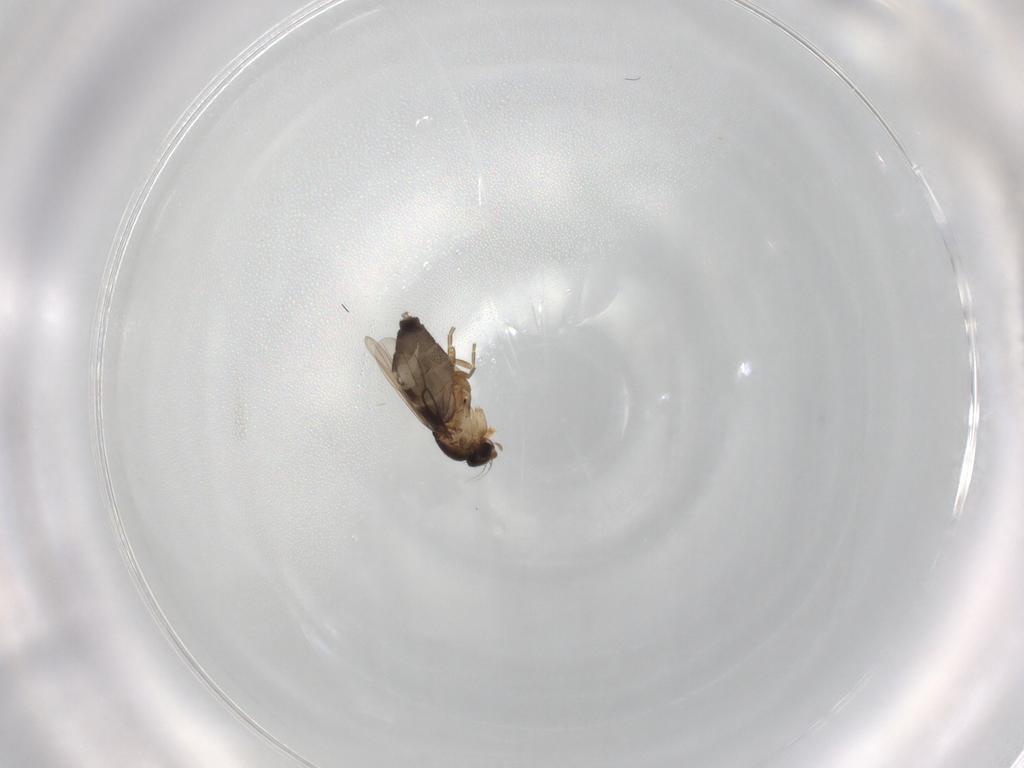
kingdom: Animalia
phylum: Arthropoda
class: Insecta
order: Diptera
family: Phoridae
